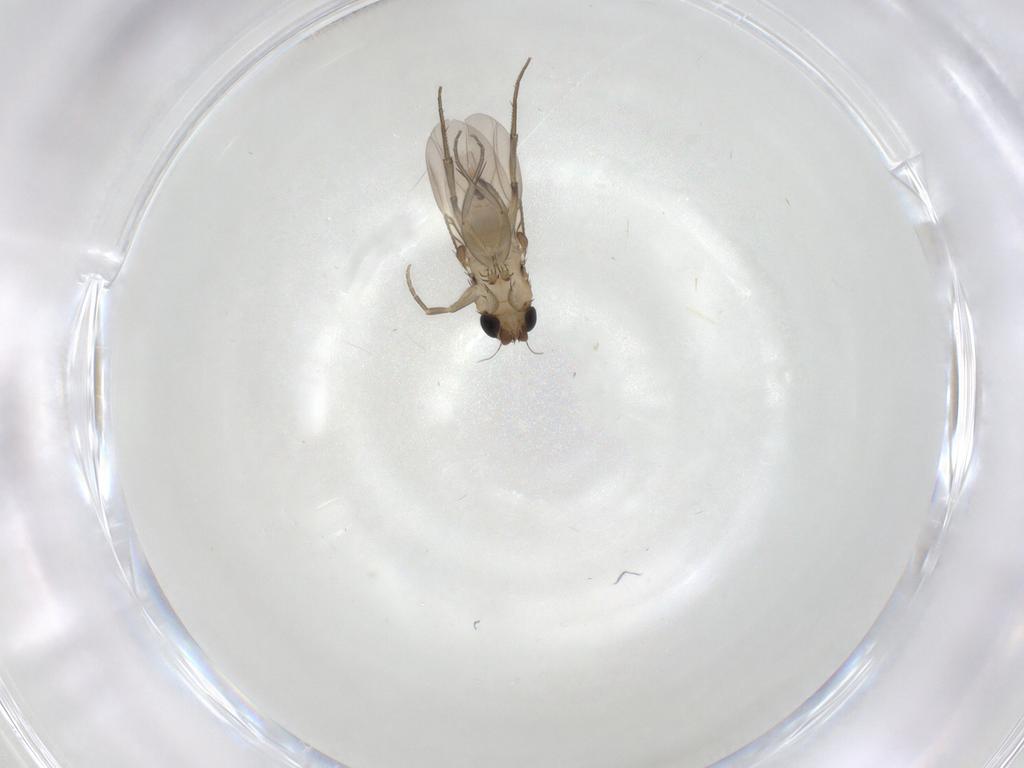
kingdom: Animalia
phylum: Arthropoda
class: Insecta
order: Diptera
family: Phoridae
